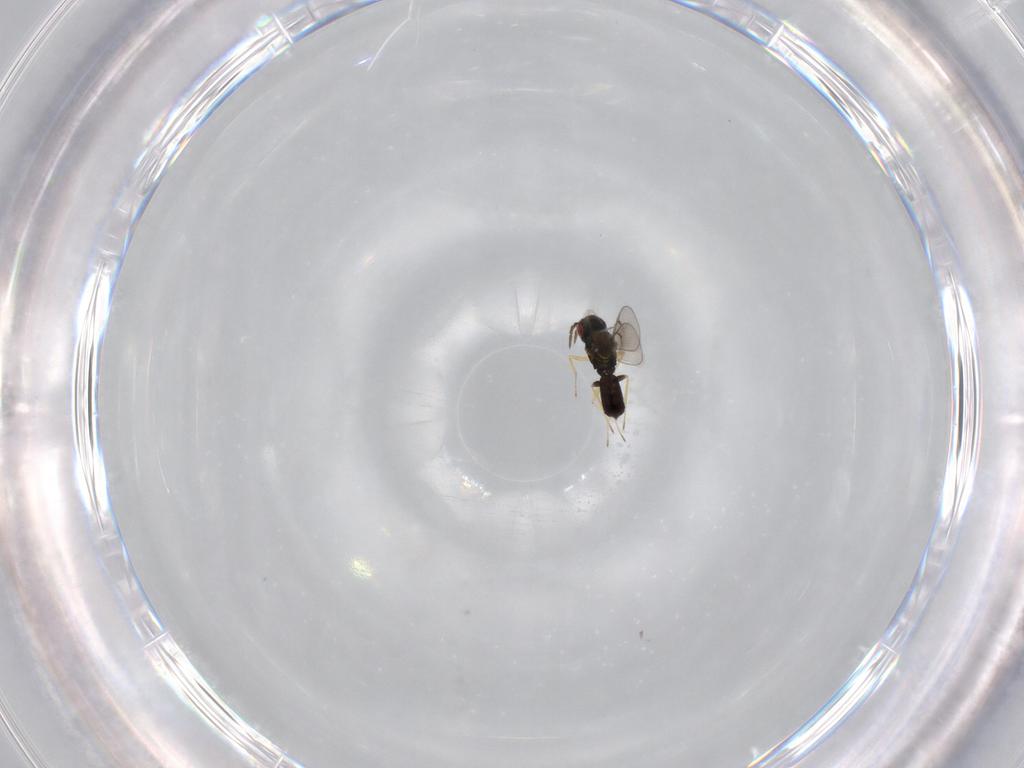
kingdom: Animalia
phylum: Arthropoda
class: Insecta
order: Hymenoptera
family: Eulophidae
